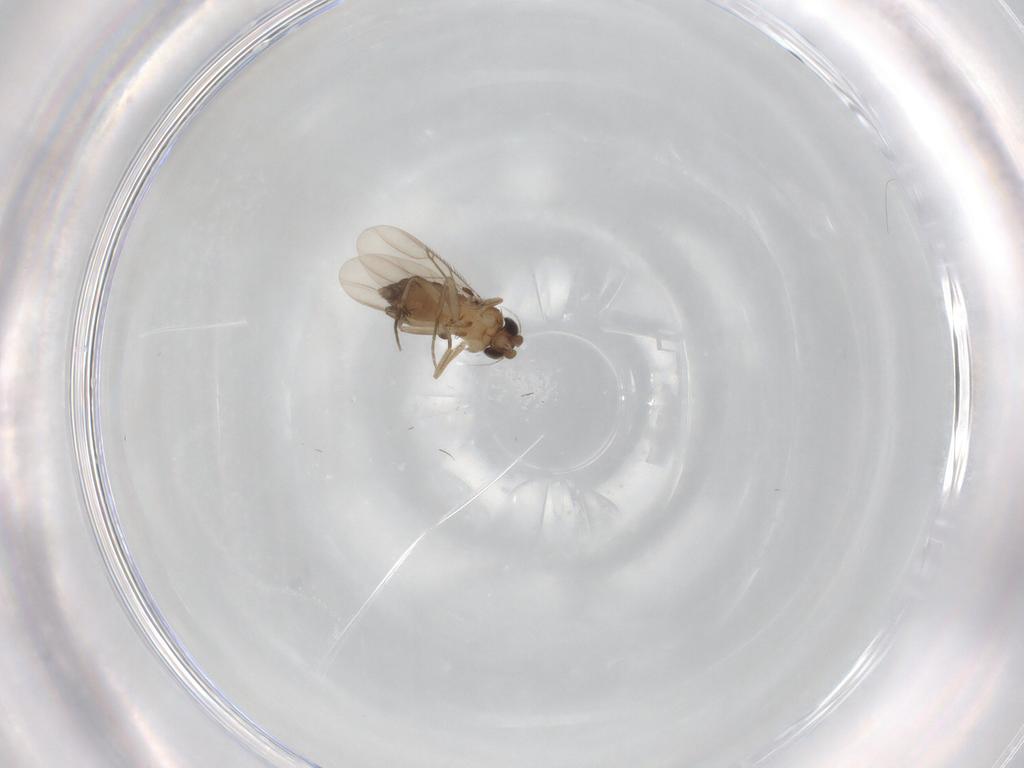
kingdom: Animalia
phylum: Arthropoda
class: Insecta
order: Diptera
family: Phoridae
